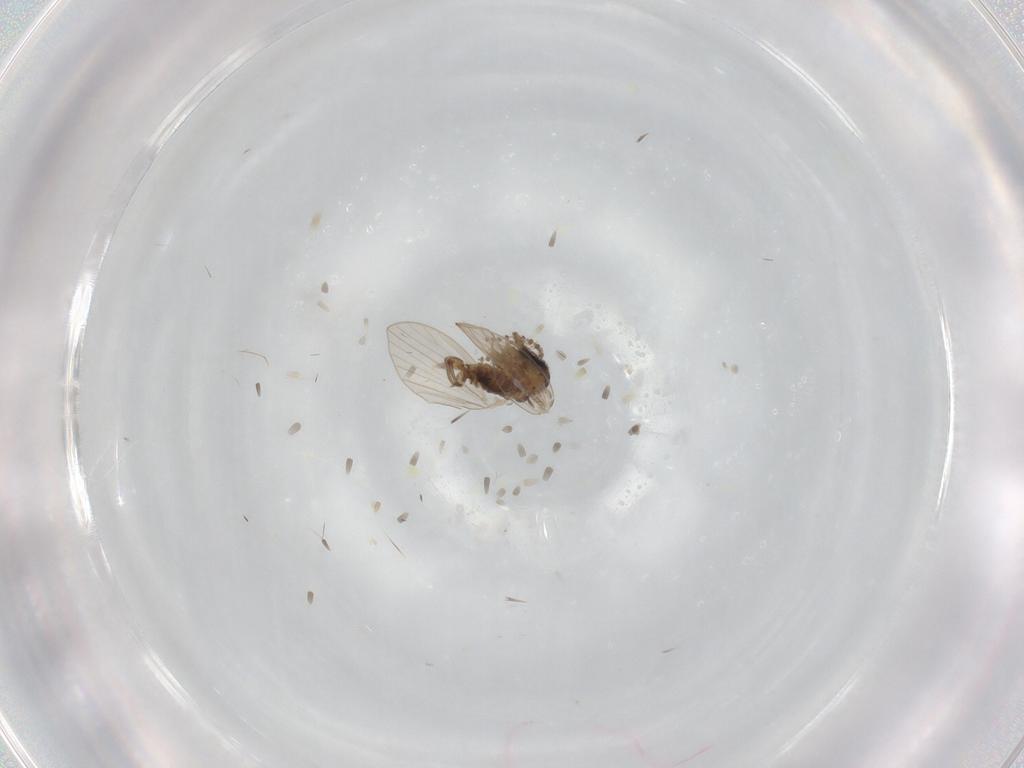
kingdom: Animalia
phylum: Arthropoda
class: Insecta
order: Diptera
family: Psychodidae
